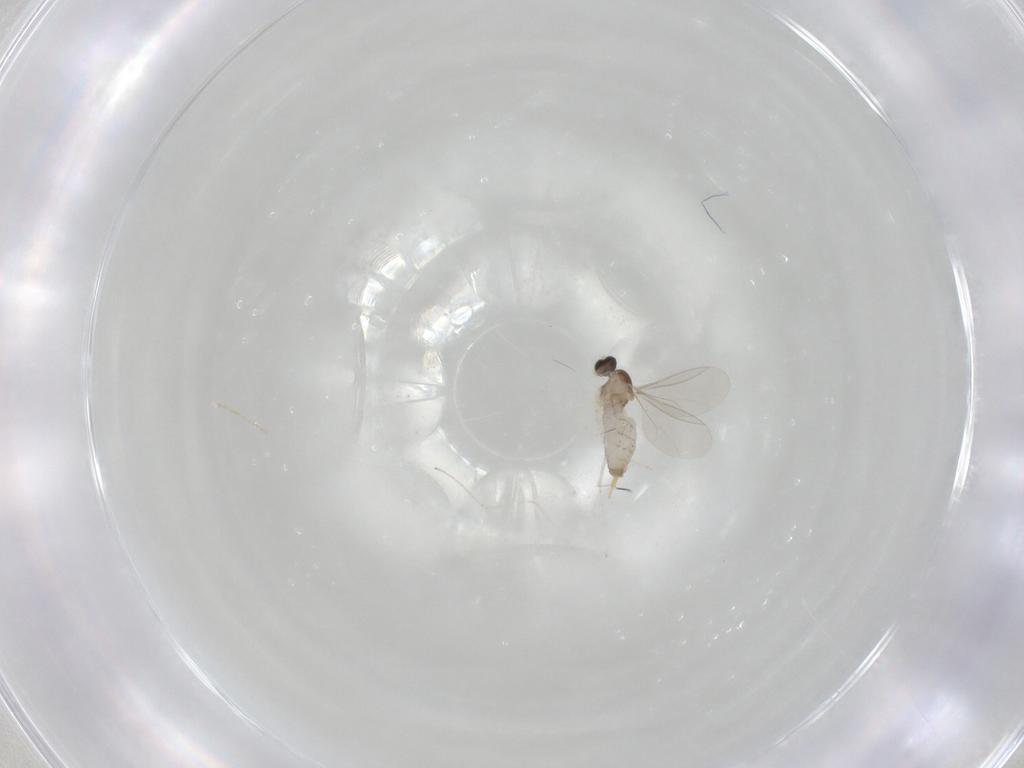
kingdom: Animalia
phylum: Arthropoda
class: Insecta
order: Diptera
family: Cecidomyiidae
